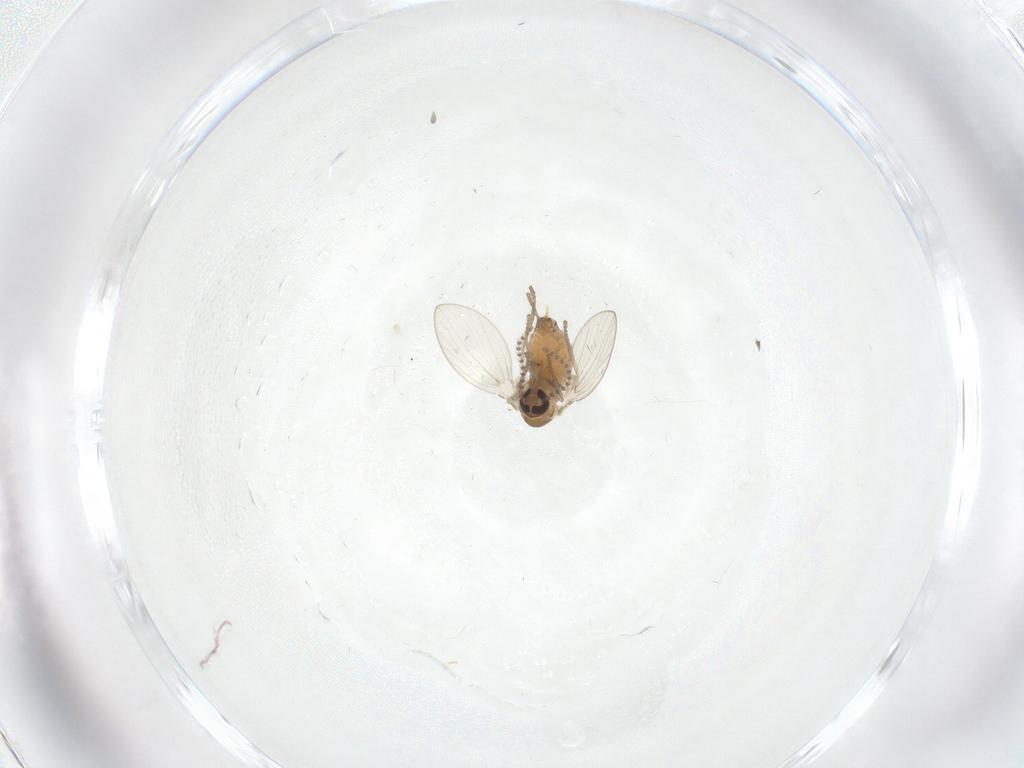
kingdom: Animalia
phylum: Arthropoda
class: Insecta
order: Diptera
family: Psychodidae
